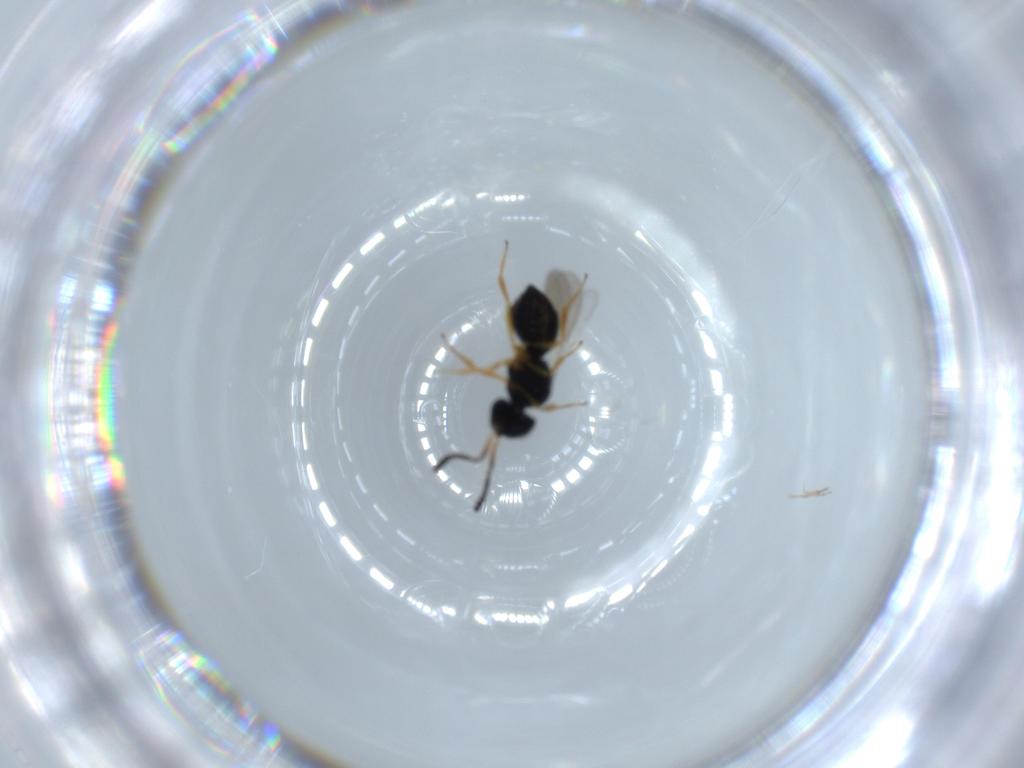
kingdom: Animalia
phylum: Arthropoda
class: Insecta
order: Hymenoptera
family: Scelionidae
